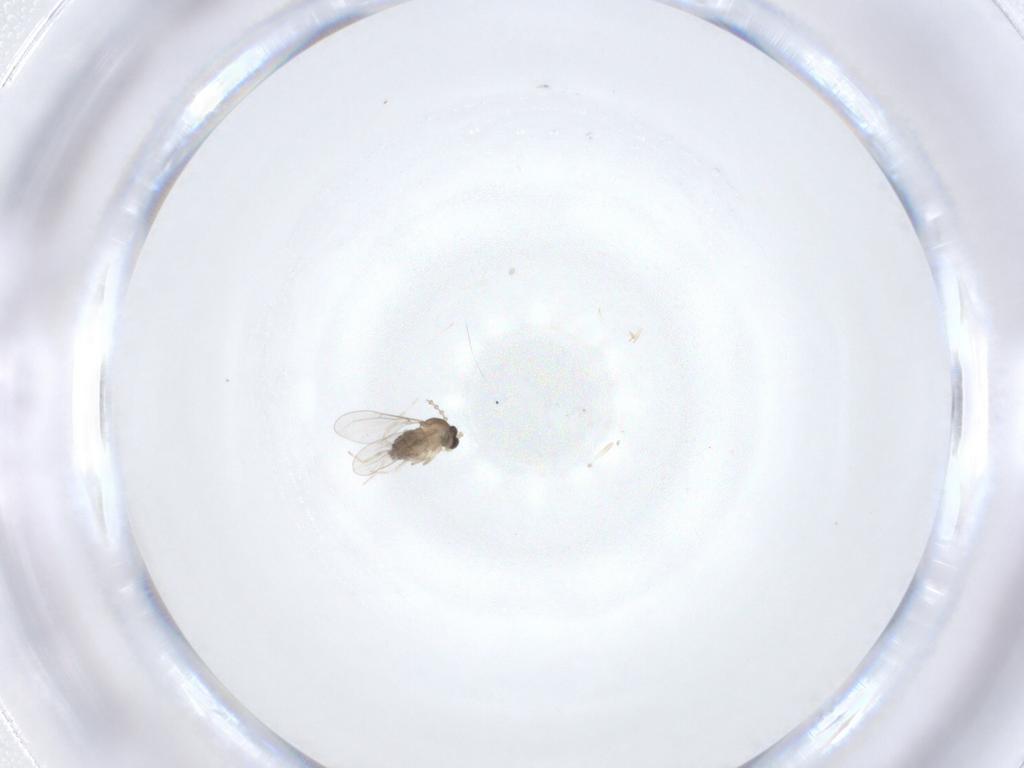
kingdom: Animalia
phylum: Arthropoda
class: Insecta
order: Diptera
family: Cecidomyiidae
